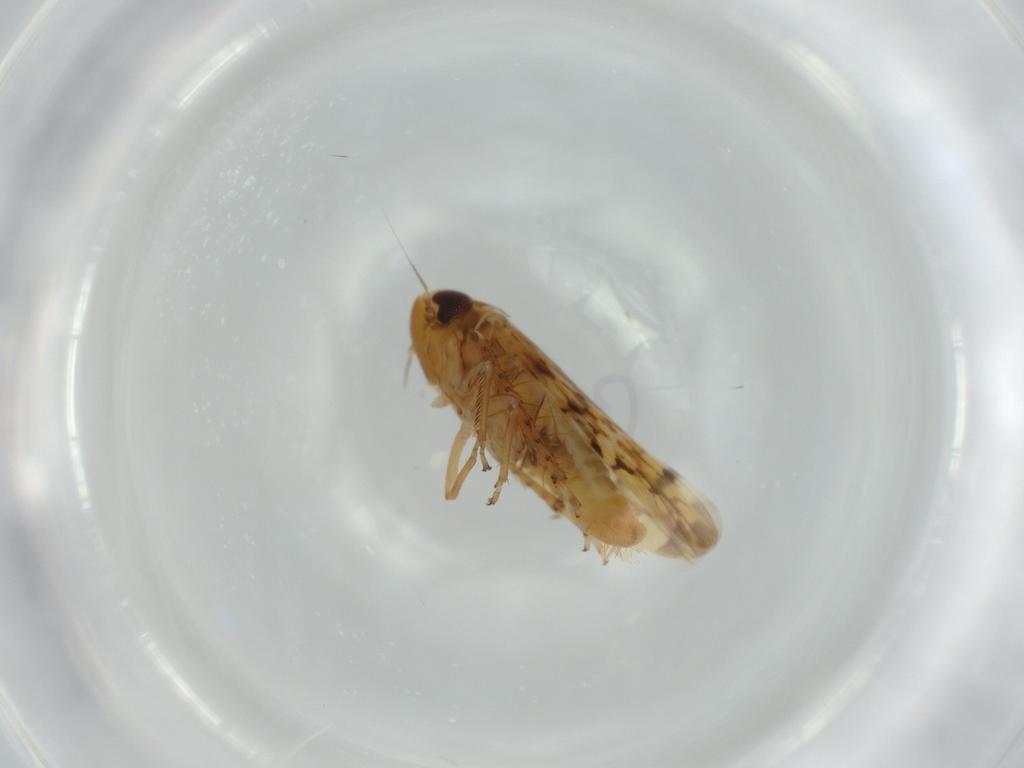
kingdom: Animalia
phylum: Arthropoda
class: Insecta
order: Hemiptera
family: Cicadellidae
